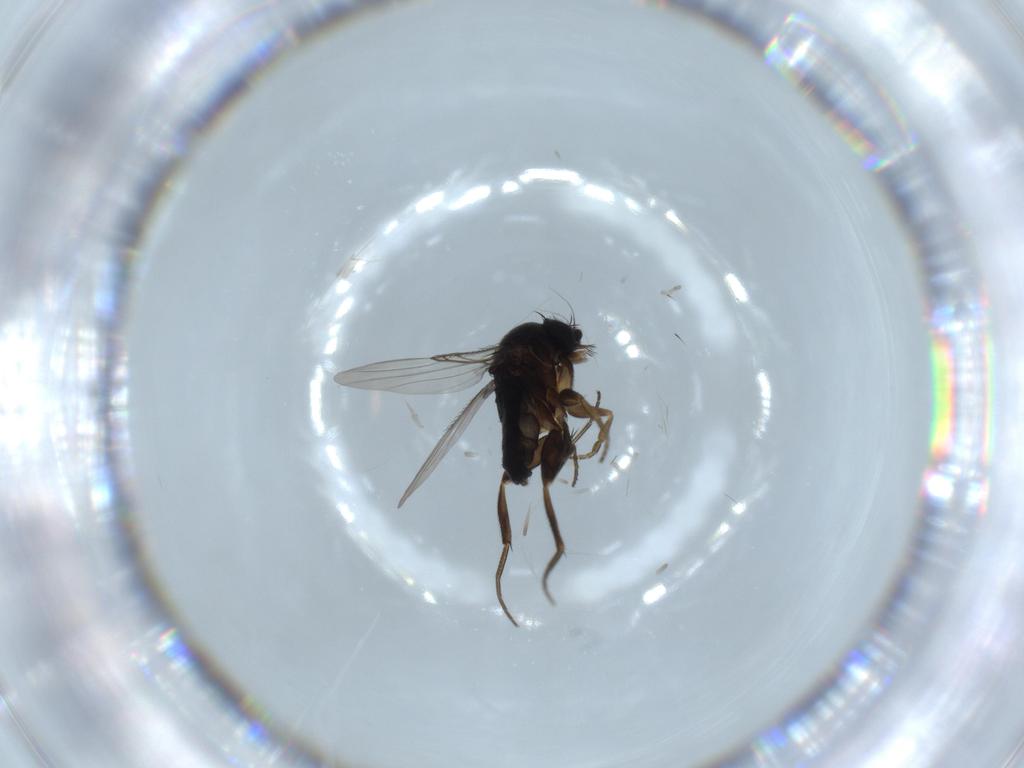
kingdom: Animalia
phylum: Arthropoda
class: Insecta
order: Diptera
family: Phoridae
